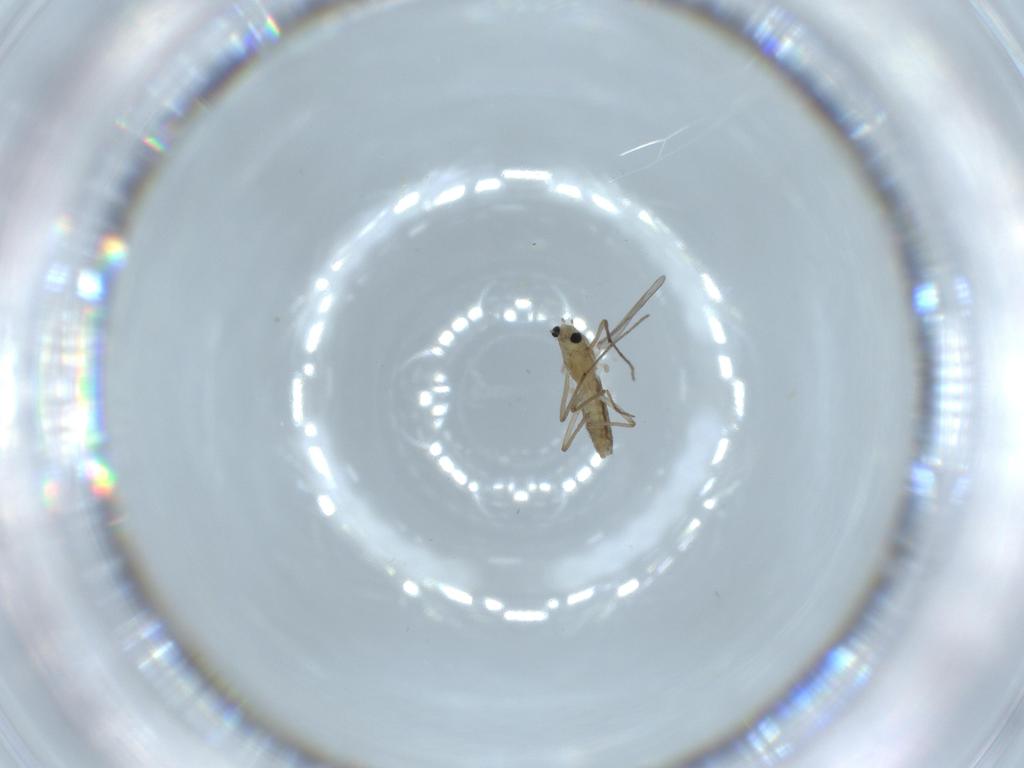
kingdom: Animalia
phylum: Arthropoda
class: Insecta
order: Diptera
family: Chironomidae
